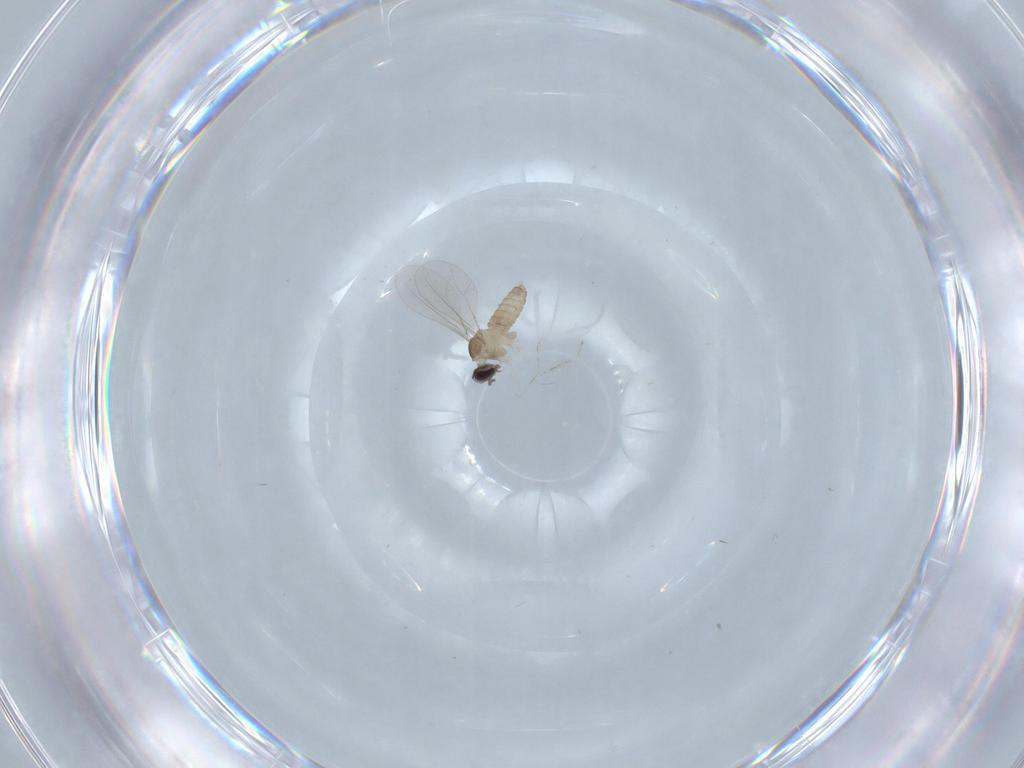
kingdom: Animalia
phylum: Arthropoda
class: Insecta
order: Diptera
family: Cecidomyiidae
